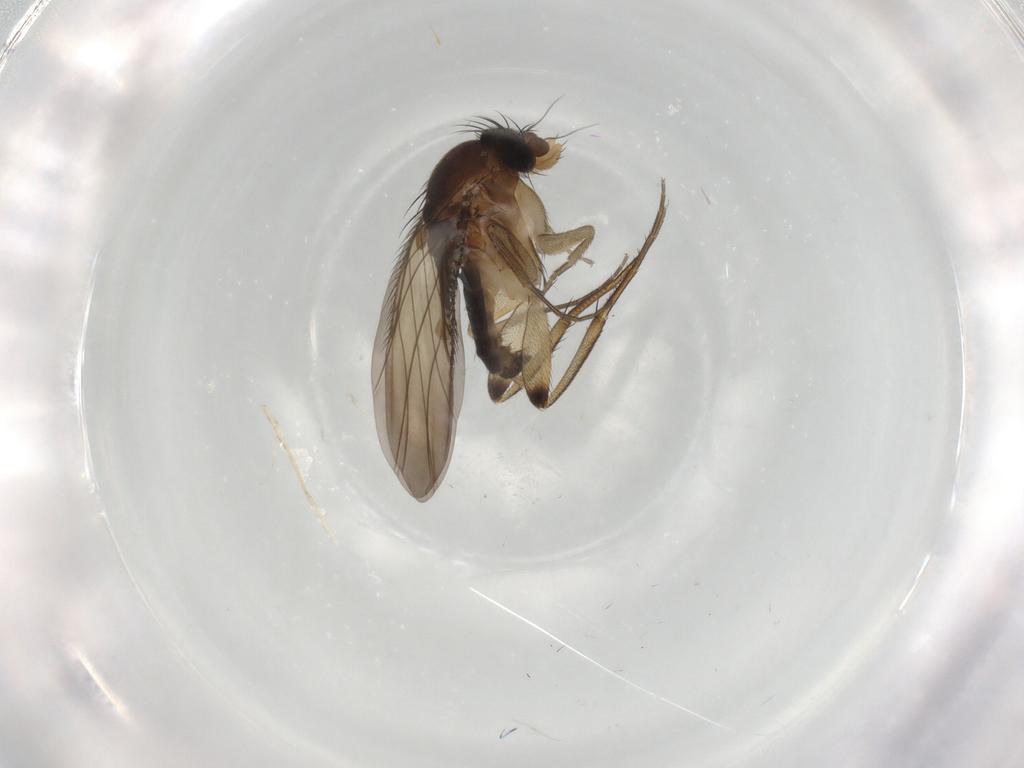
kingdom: Animalia
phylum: Arthropoda
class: Insecta
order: Diptera
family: Phoridae
